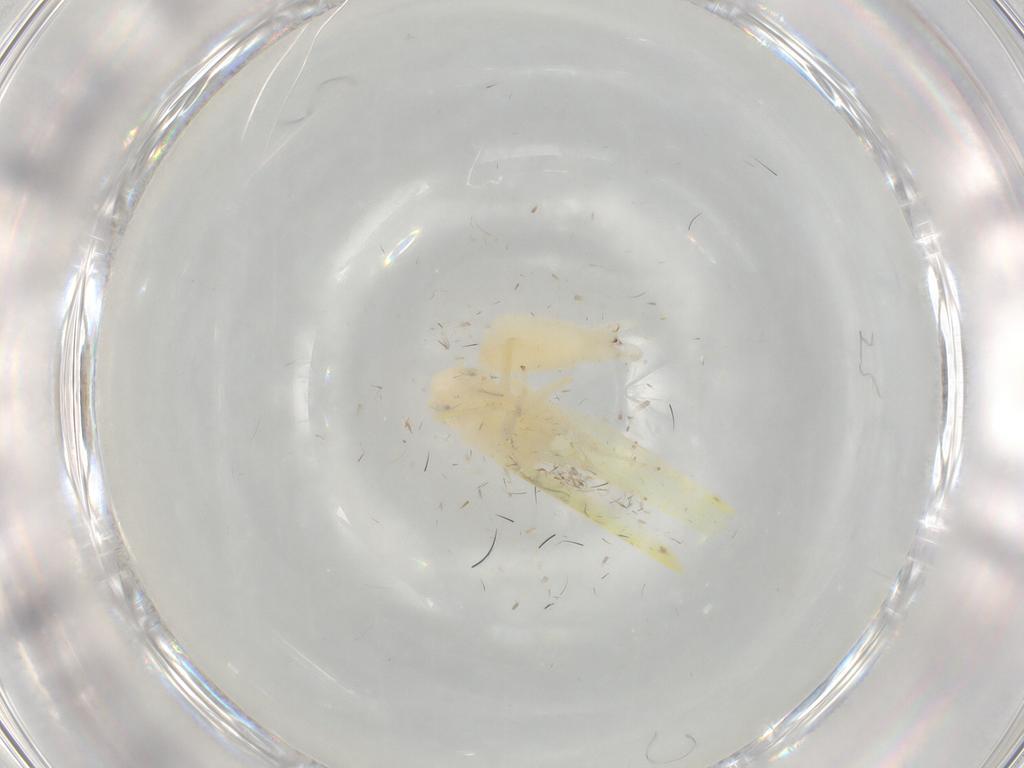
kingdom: Animalia
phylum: Arthropoda
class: Insecta
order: Hemiptera
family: Cicadellidae
